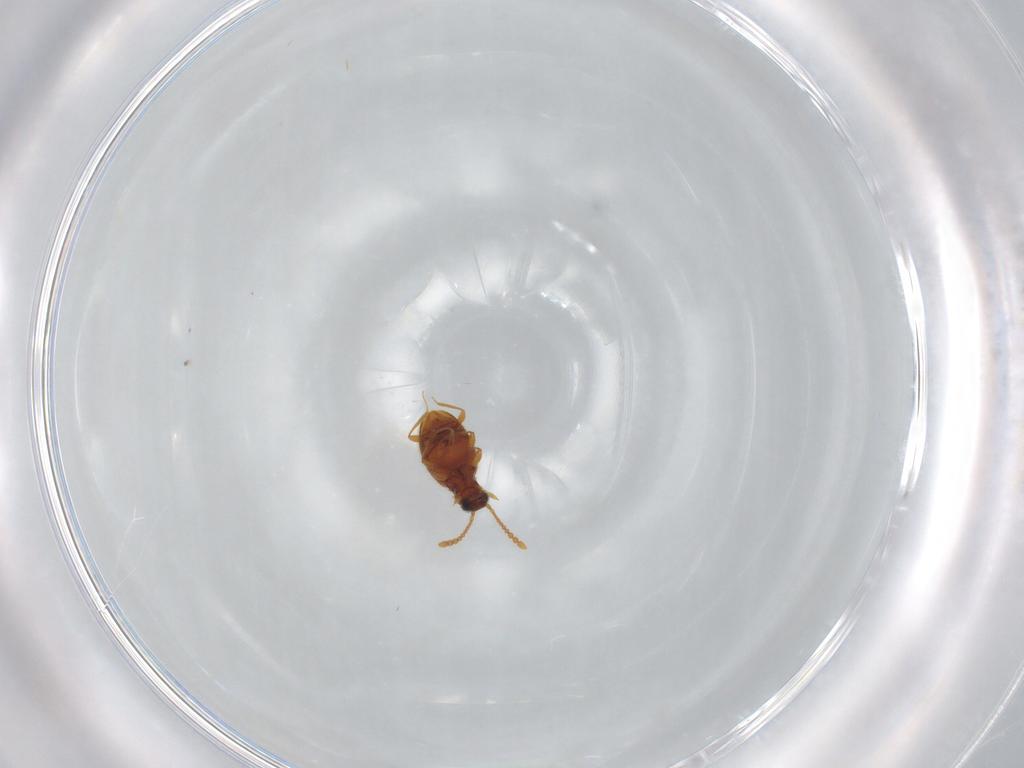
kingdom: Animalia
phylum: Arthropoda
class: Insecta
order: Coleoptera
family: Staphylinidae
